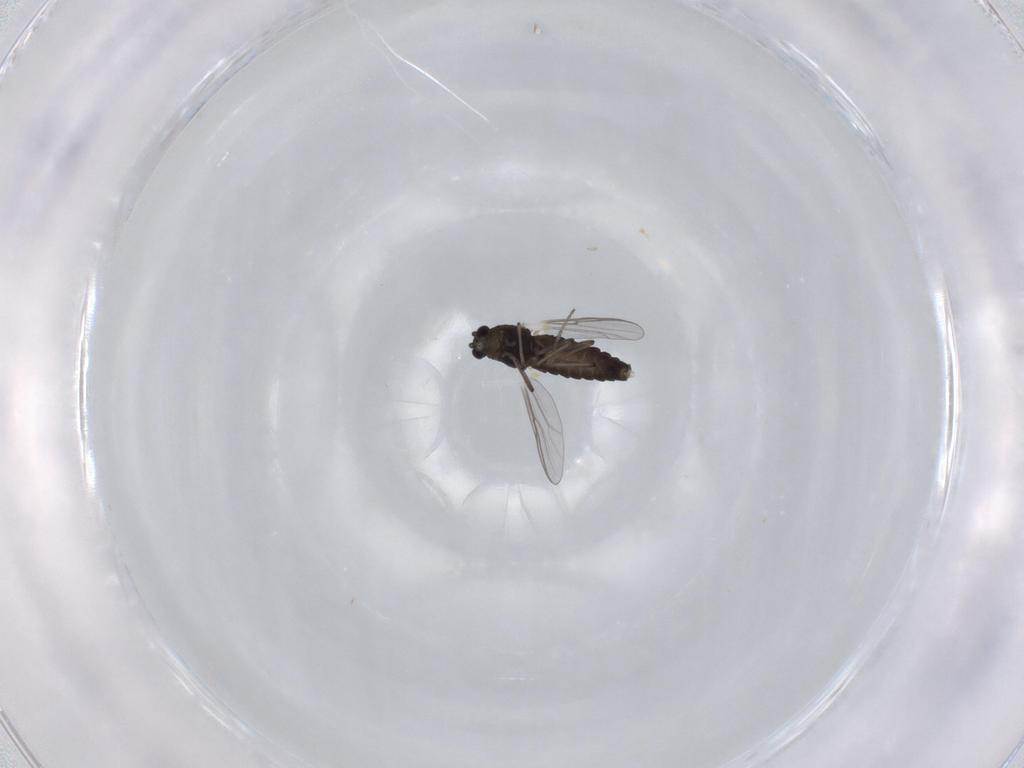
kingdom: Animalia
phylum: Arthropoda
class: Insecta
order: Diptera
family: Chironomidae
